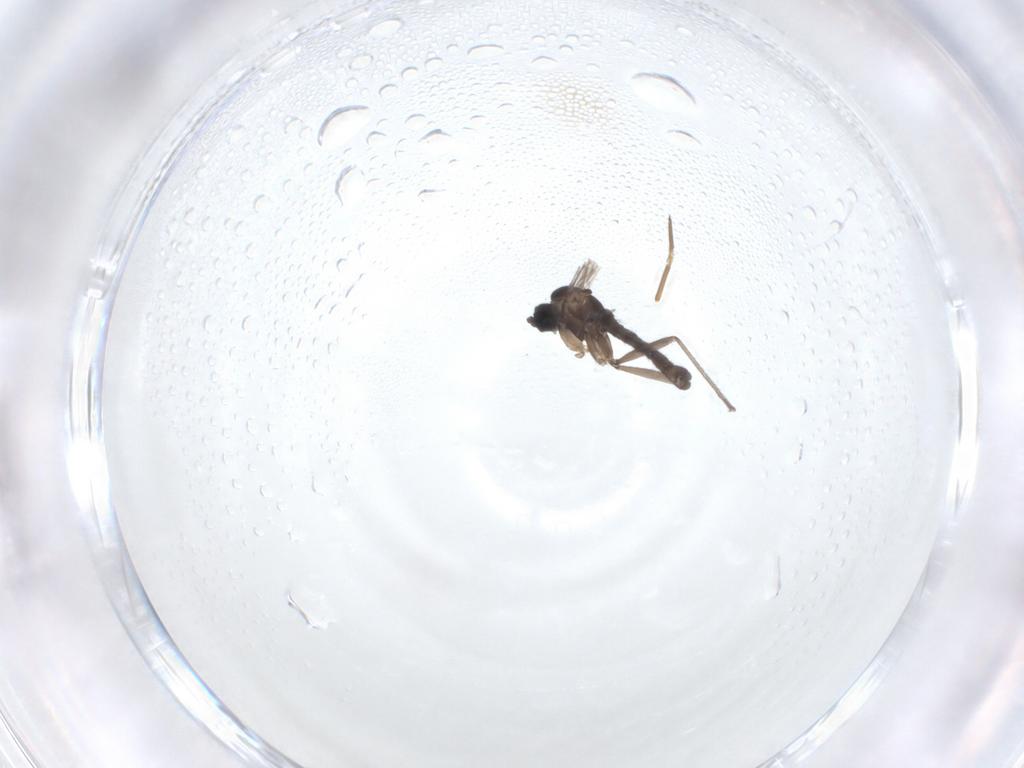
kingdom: Animalia
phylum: Arthropoda
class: Insecta
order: Diptera
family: Sciaridae
